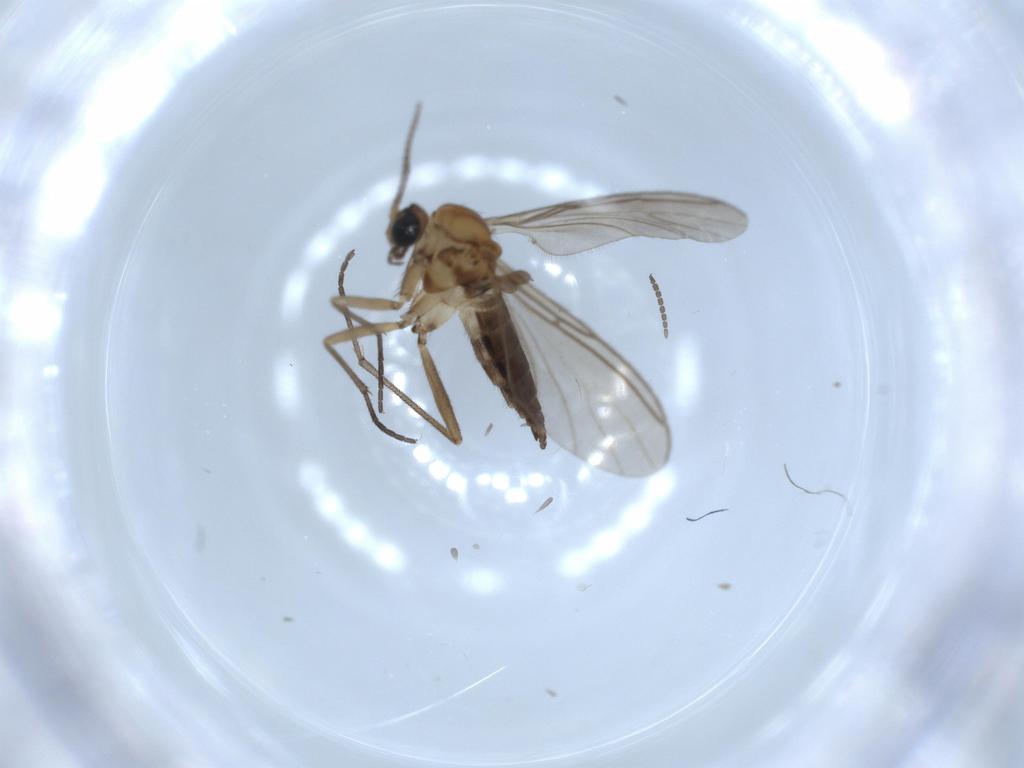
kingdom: Animalia
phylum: Arthropoda
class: Insecta
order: Diptera
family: Sciaridae
